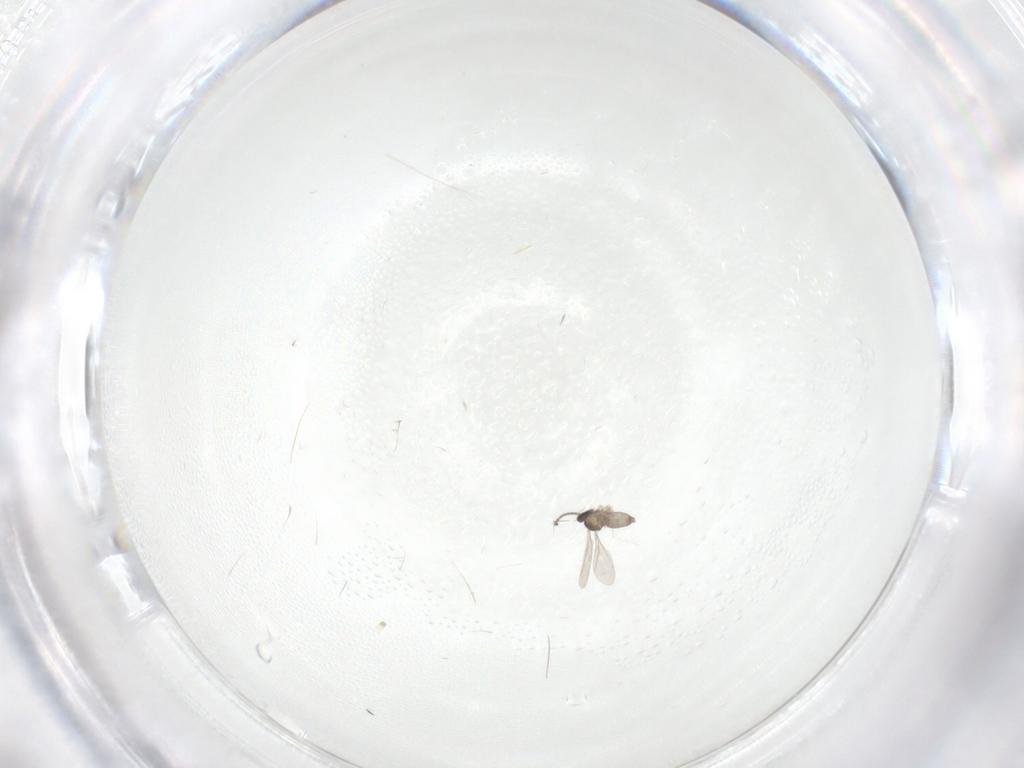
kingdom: Animalia
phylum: Arthropoda
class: Insecta
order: Diptera
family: Cecidomyiidae
